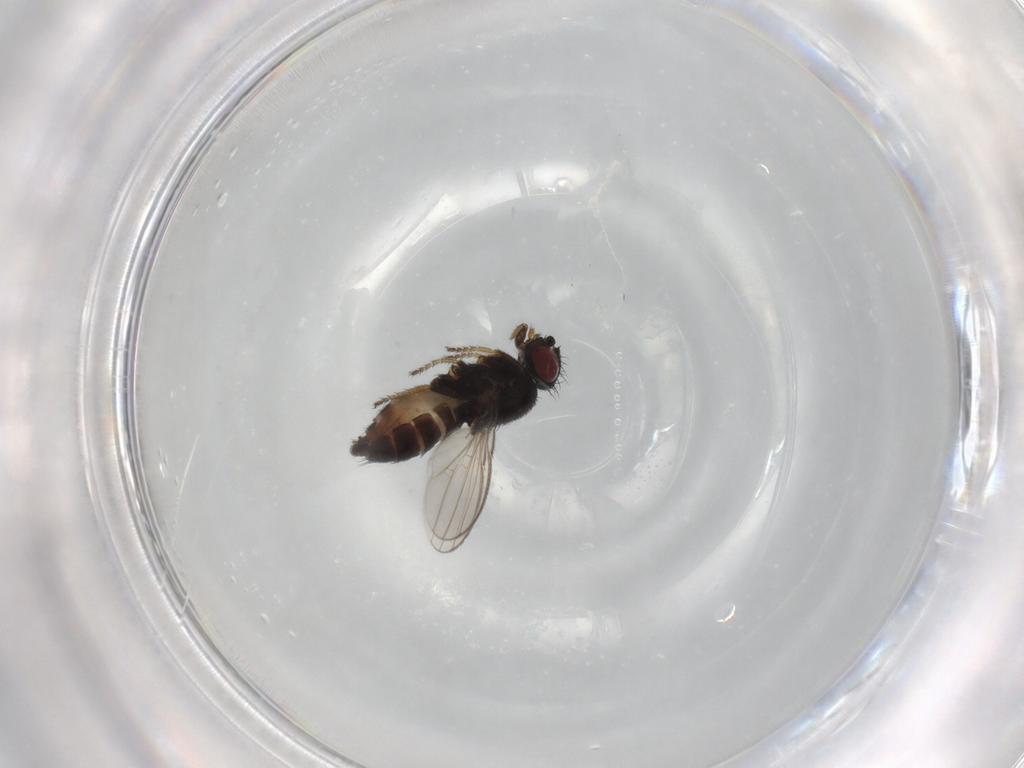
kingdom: Animalia
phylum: Arthropoda
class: Insecta
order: Diptera
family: Milichiidae
